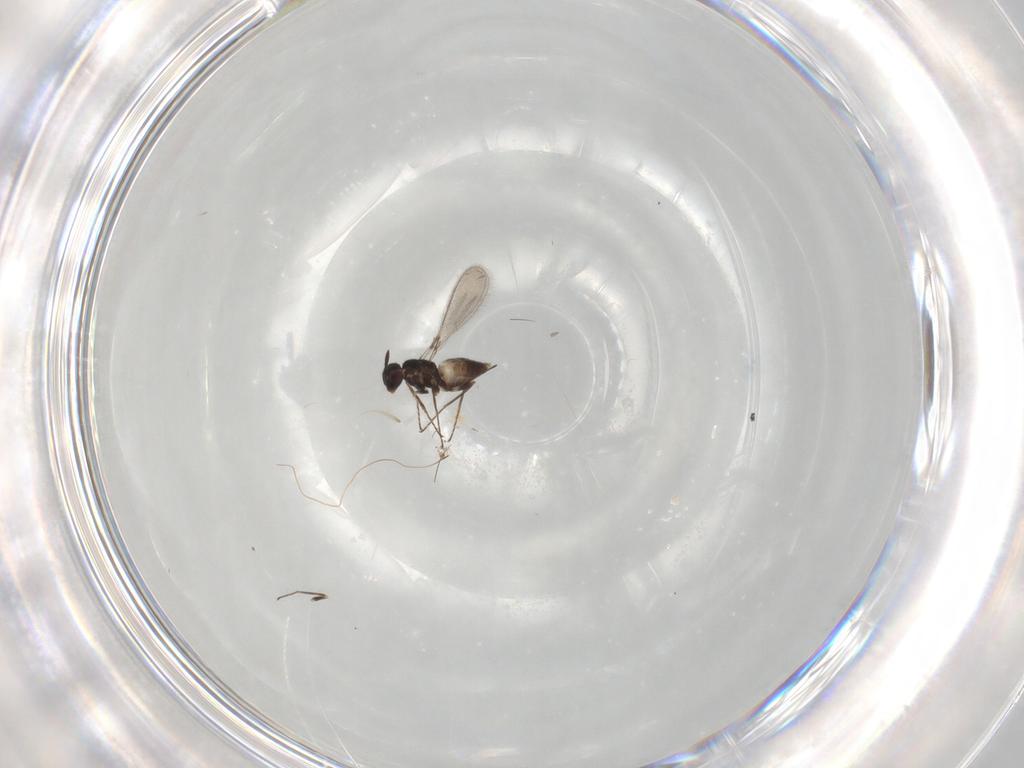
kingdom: Animalia
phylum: Arthropoda
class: Insecta
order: Hymenoptera
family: Mymaridae
